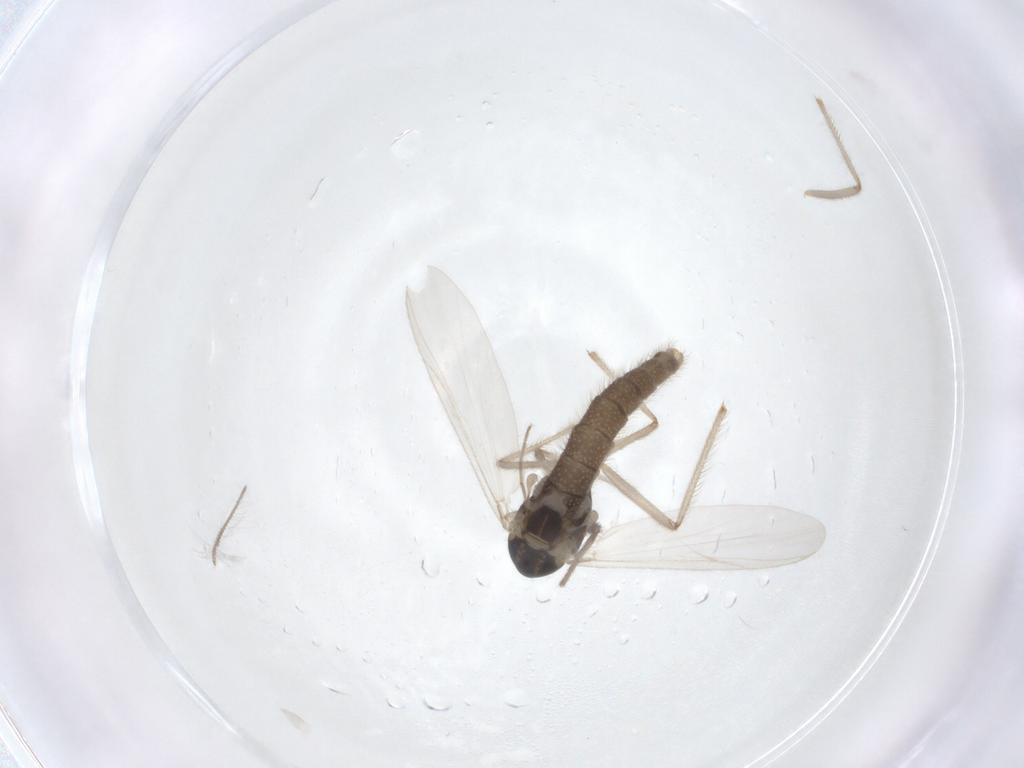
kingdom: Animalia
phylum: Arthropoda
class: Insecta
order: Diptera
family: Chironomidae
